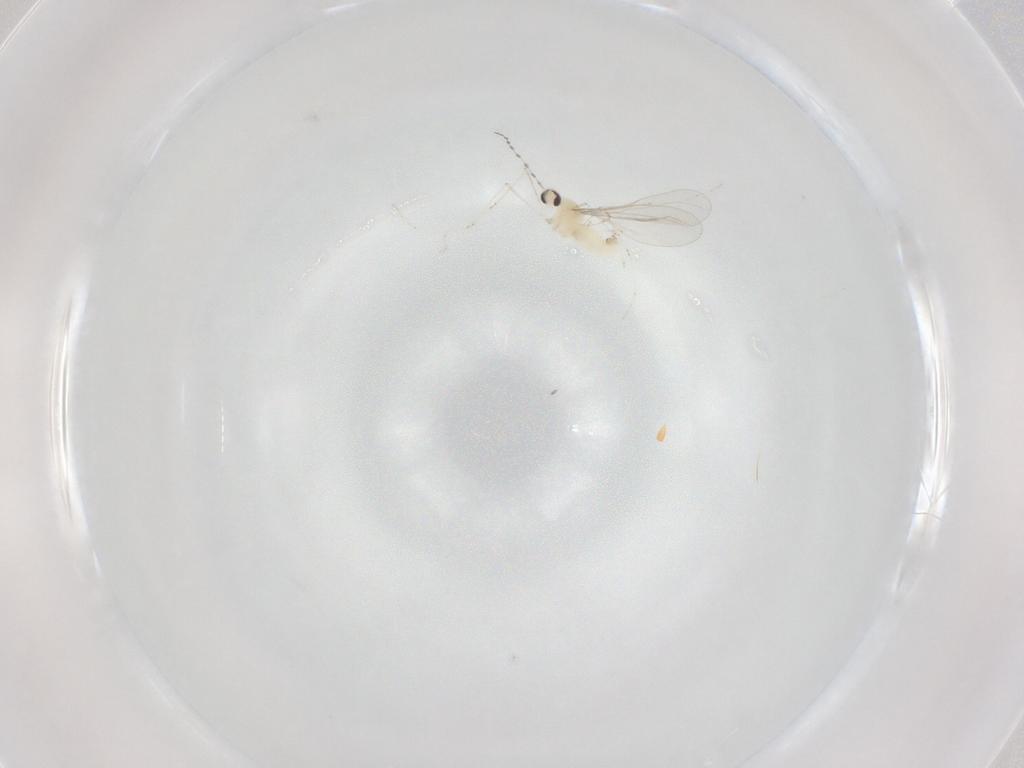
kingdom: Animalia
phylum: Arthropoda
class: Insecta
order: Diptera
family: Cecidomyiidae
